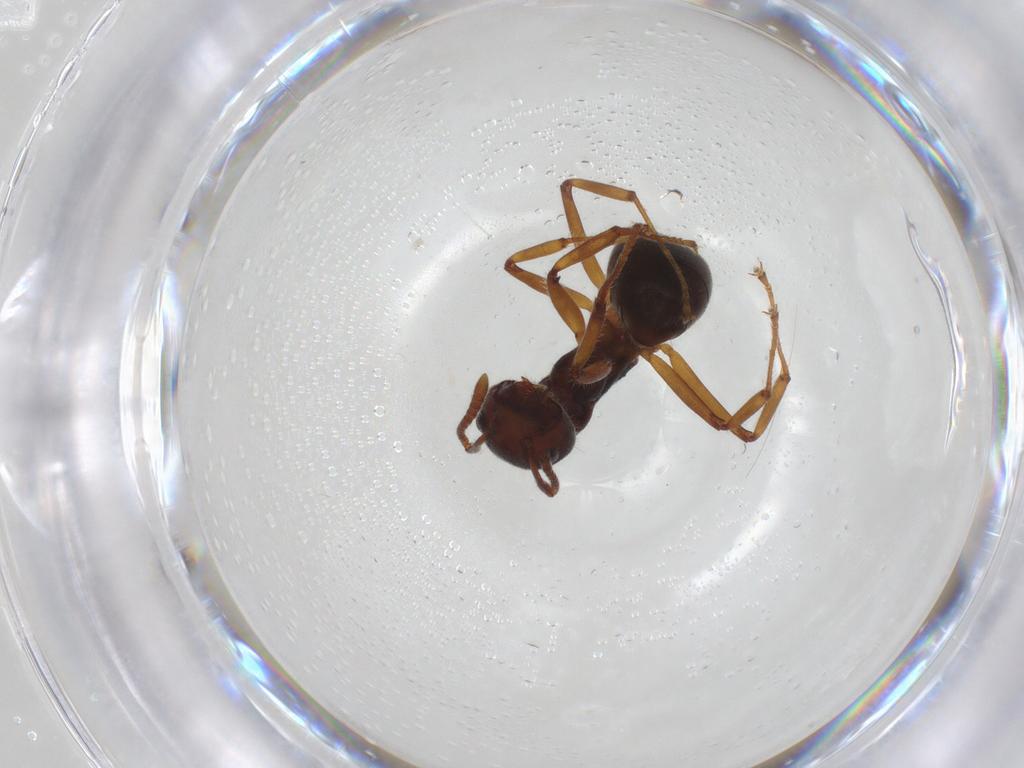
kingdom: Animalia
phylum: Arthropoda
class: Insecta
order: Hymenoptera
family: Formicidae
